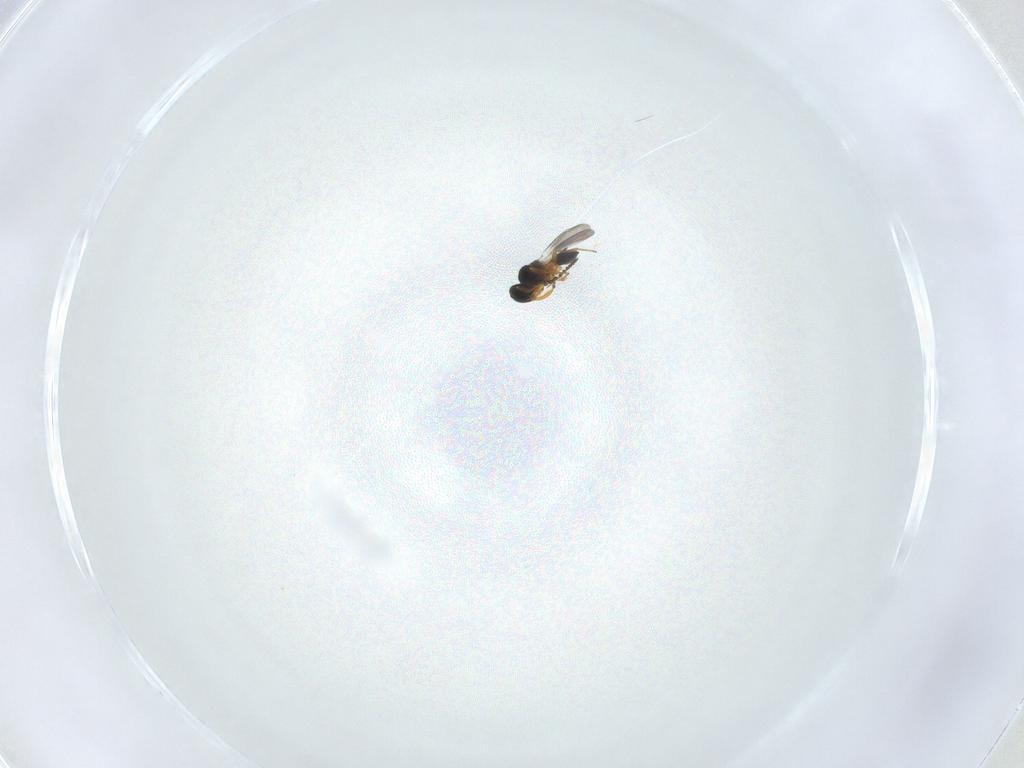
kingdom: Animalia
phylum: Arthropoda
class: Insecta
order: Hymenoptera
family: Platygastridae
